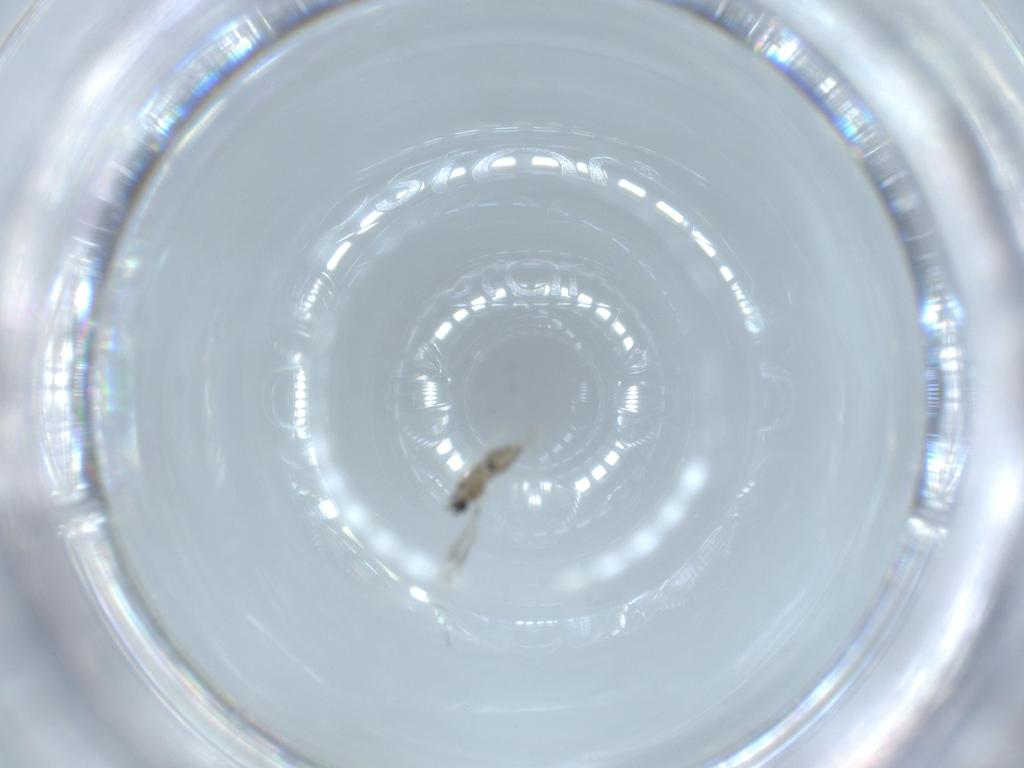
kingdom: Animalia
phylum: Arthropoda
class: Insecta
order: Diptera
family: Cecidomyiidae
